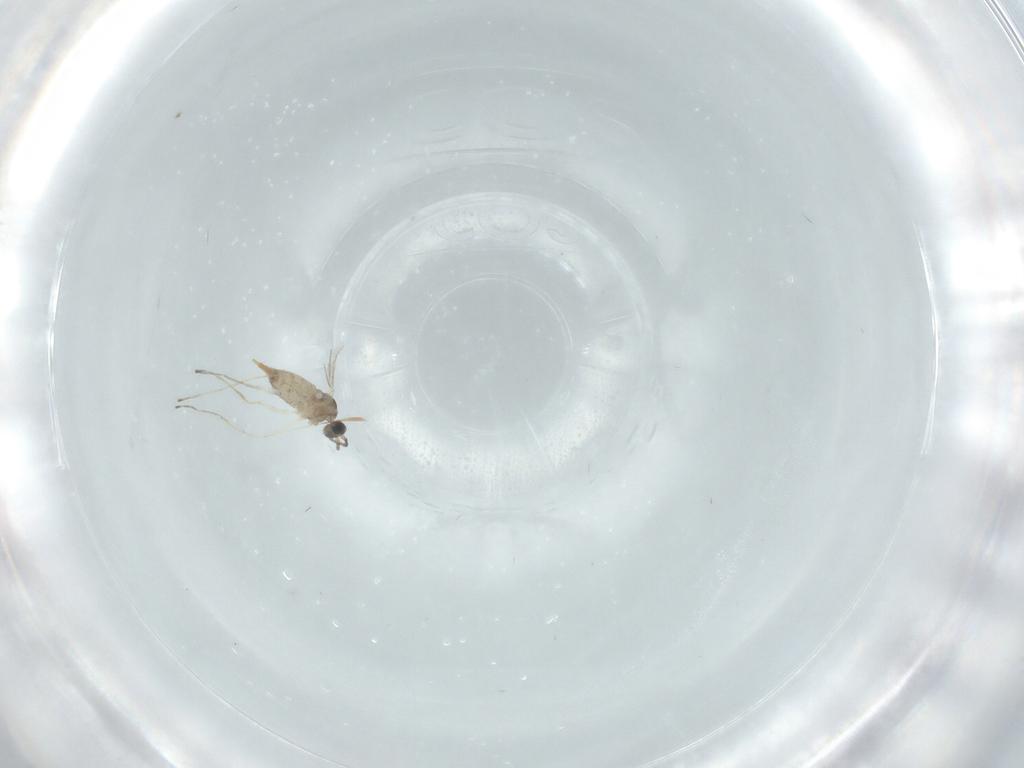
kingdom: Animalia
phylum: Arthropoda
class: Insecta
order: Diptera
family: Cecidomyiidae
